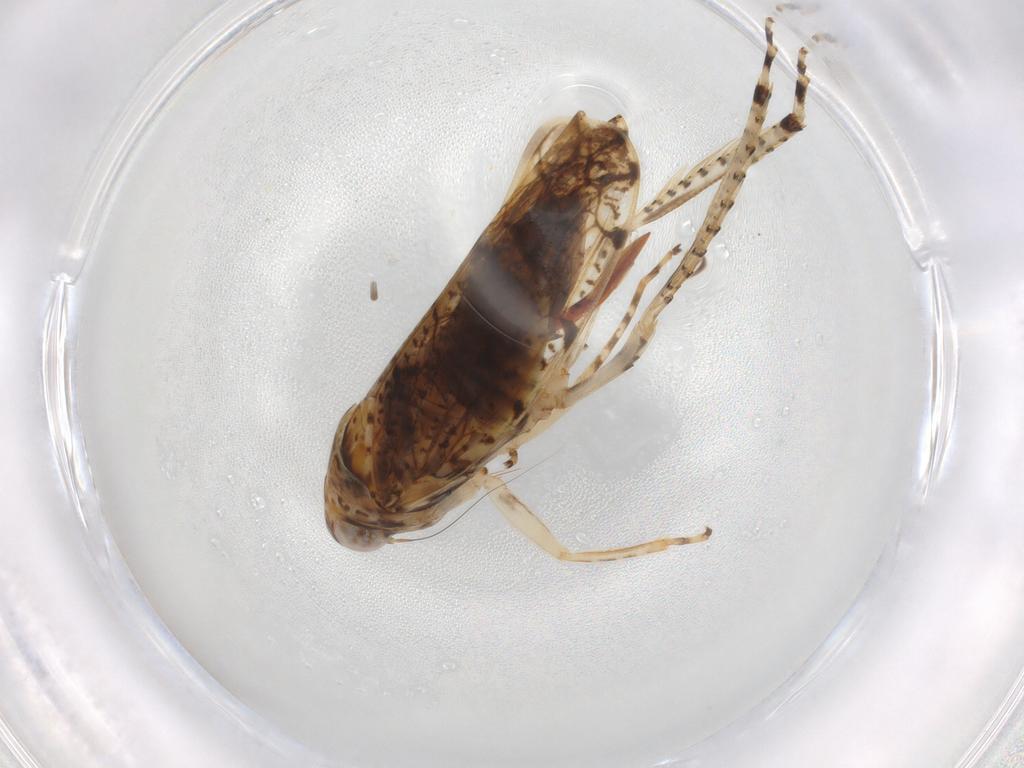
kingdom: Animalia
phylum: Arthropoda
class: Insecta
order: Hemiptera
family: Cicadellidae
